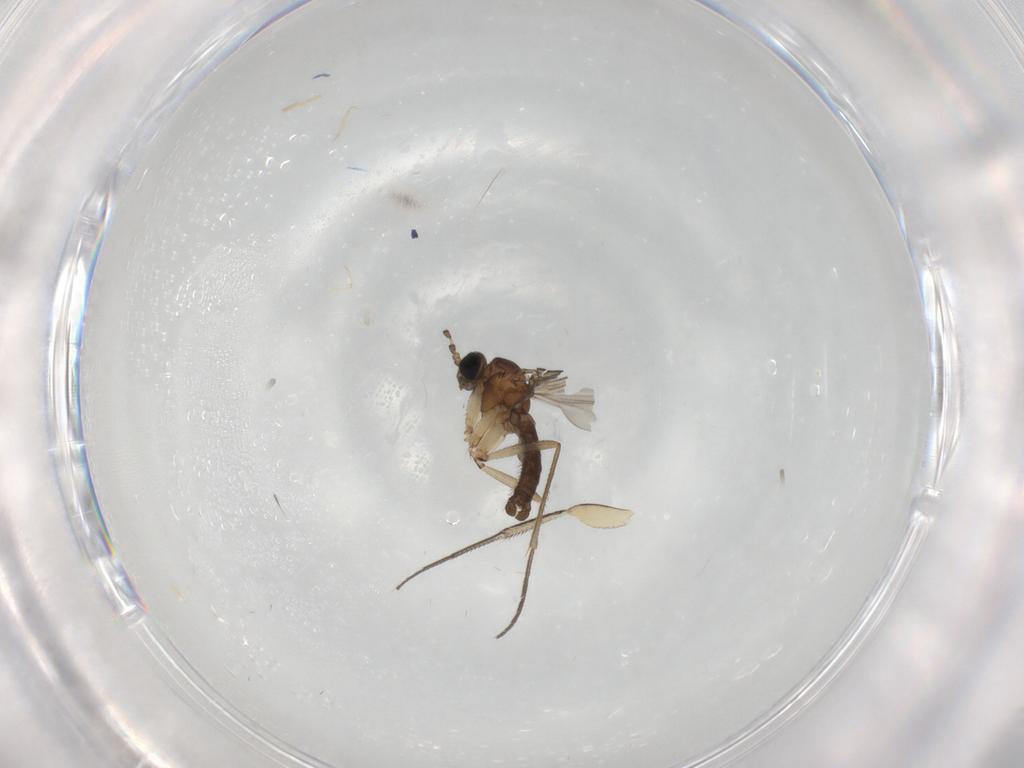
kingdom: Animalia
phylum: Arthropoda
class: Insecta
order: Diptera
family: Sciaridae
